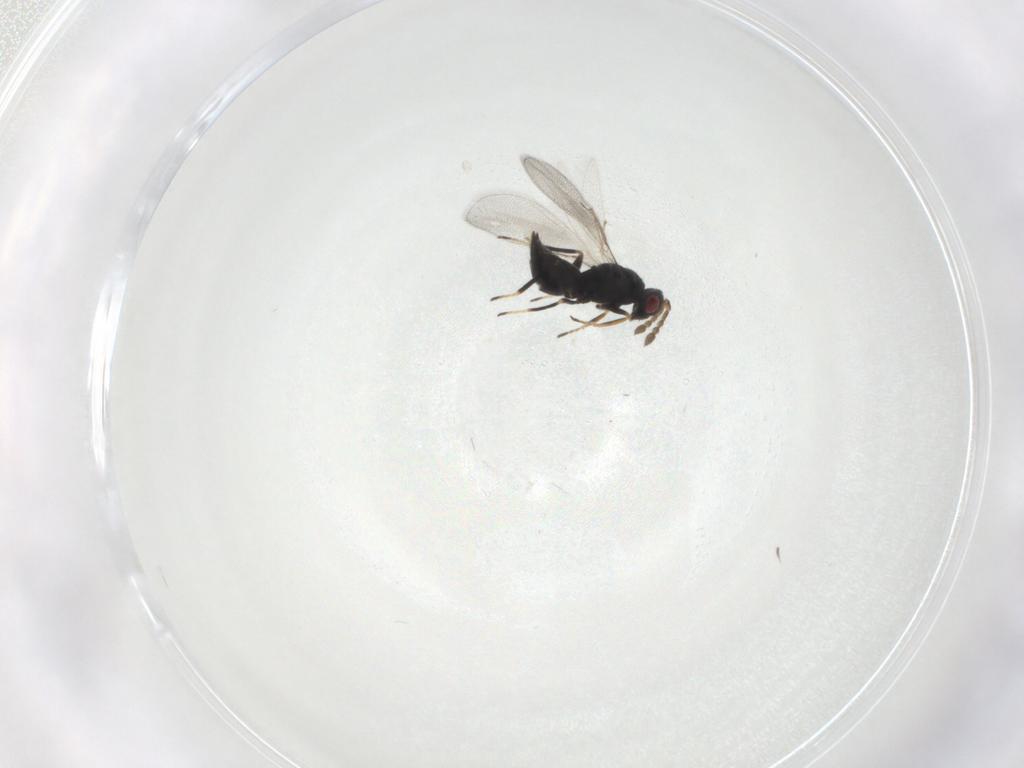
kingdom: Animalia
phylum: Arthropoda
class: Insecta
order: Hymenoptera
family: Eulophidae
